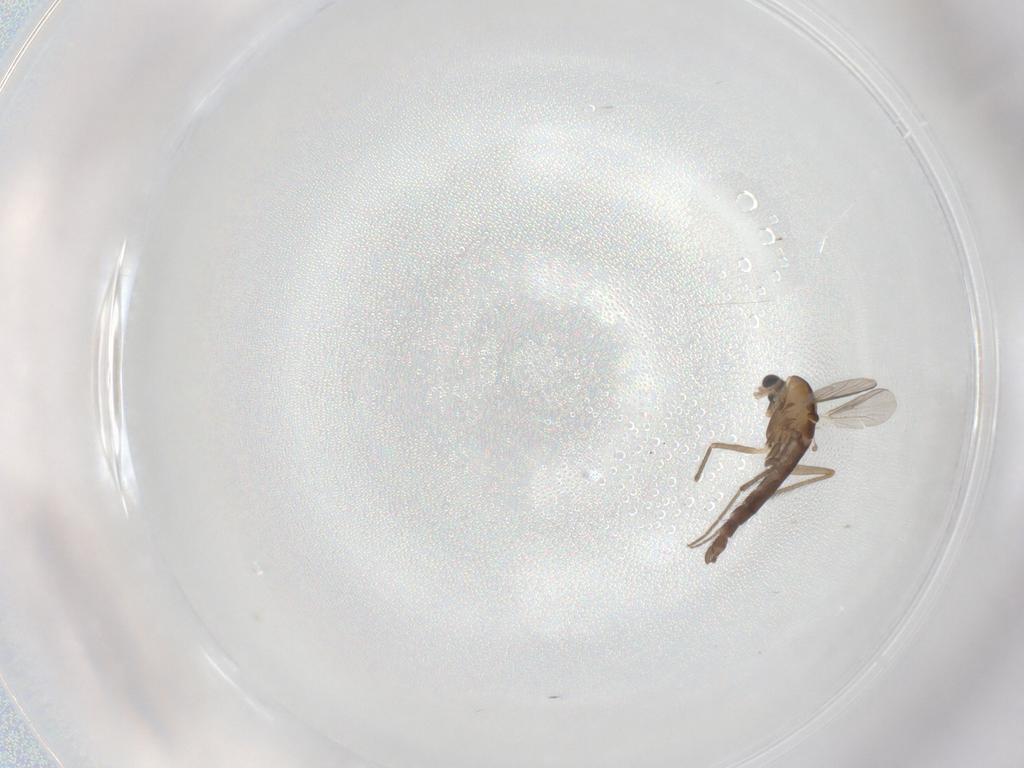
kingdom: Animalia
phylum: Arthropoda
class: Insecta
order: Diptera
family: Chironomidae
